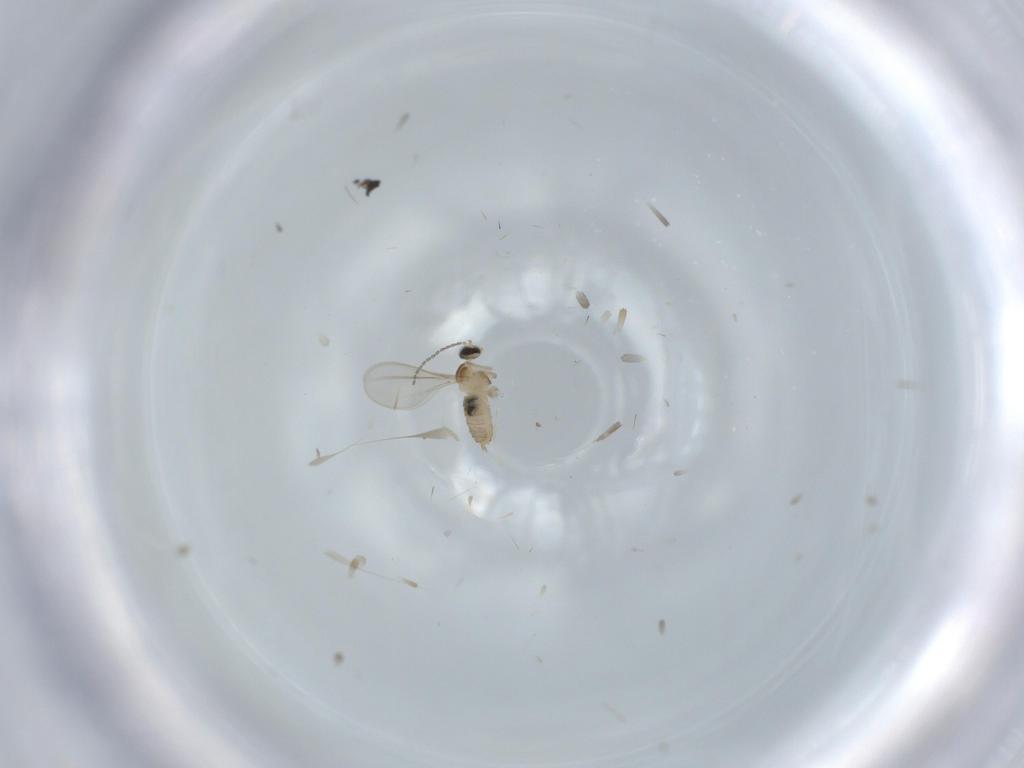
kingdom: Animalia
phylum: Arthropoda
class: Insecta
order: Diptera
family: Cecidomyiidae
